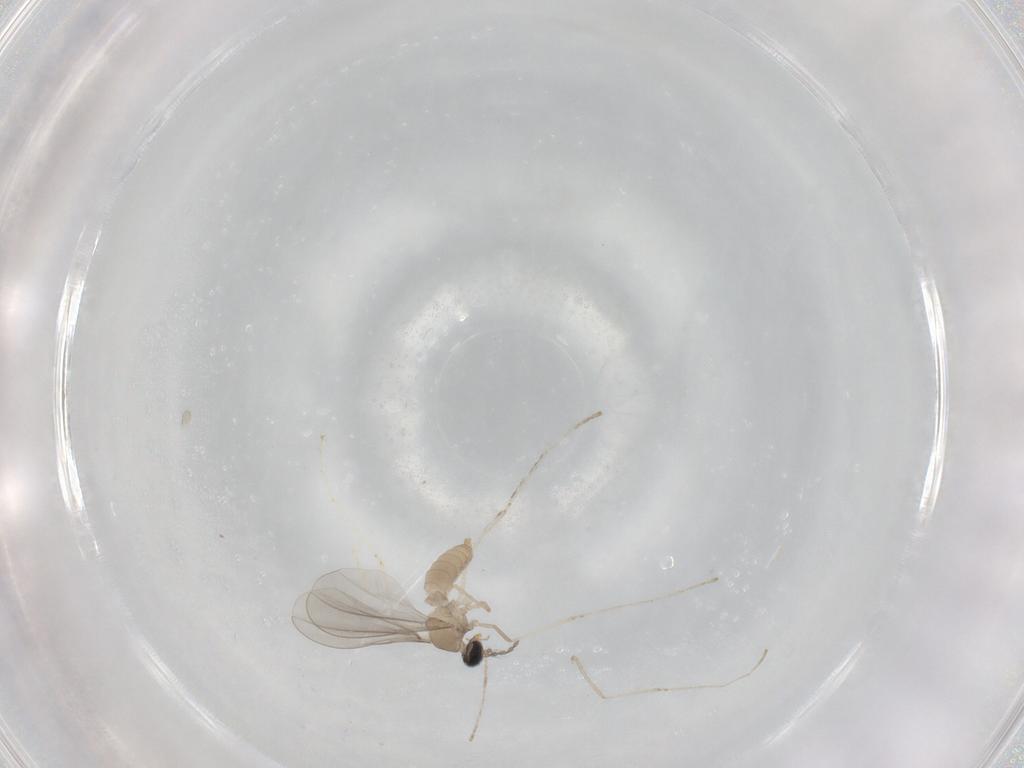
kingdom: Animalia
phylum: Arthropoda
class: Insecta
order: Diptera
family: Cecidomyiidae
